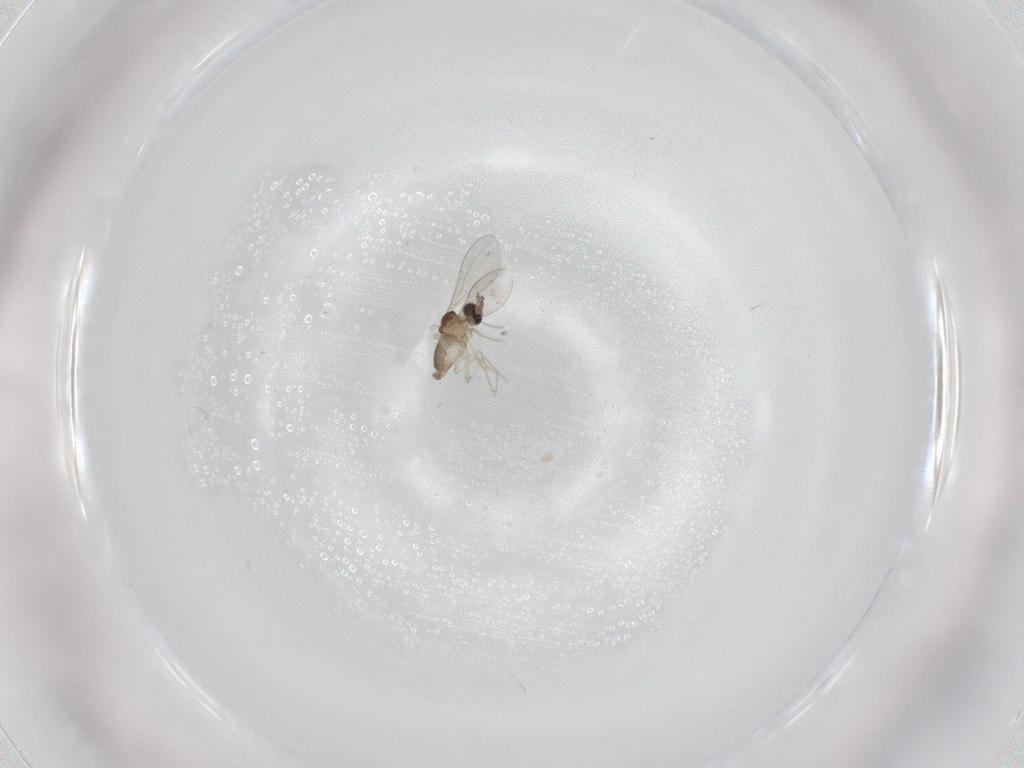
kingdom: Animalia
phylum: Arthropoda
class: Insecta
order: Diptera
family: Cecidomyiidae
